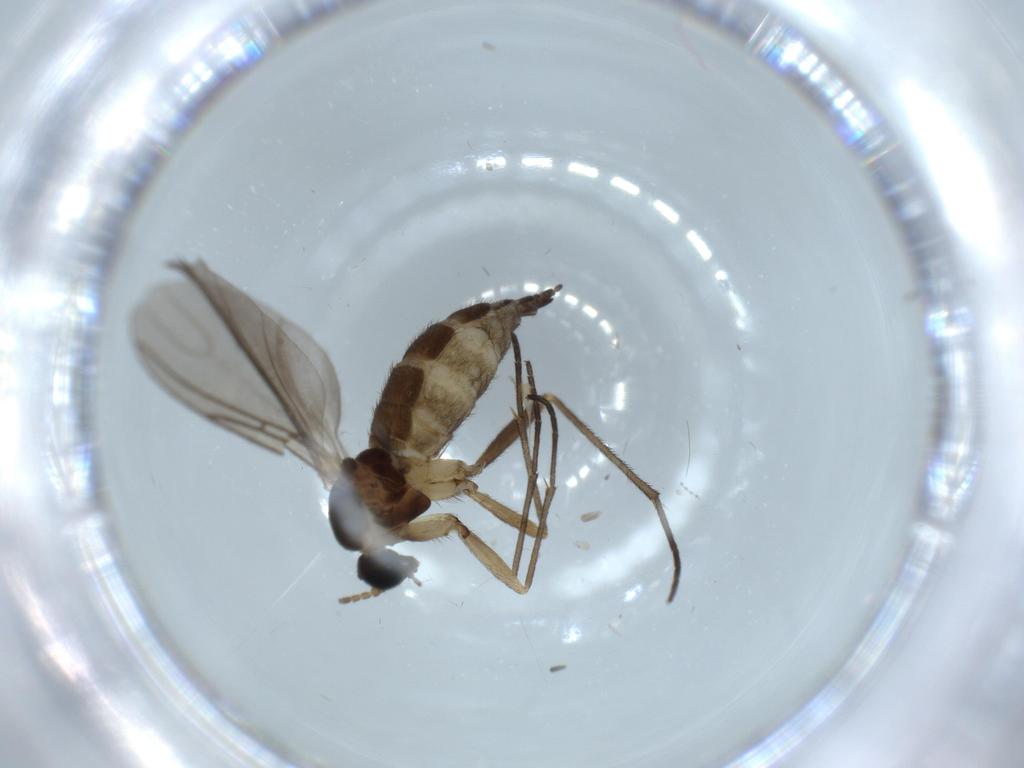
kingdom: Animalia
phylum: Arthropoda
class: Insecta
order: Diptera
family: Sciaridae
